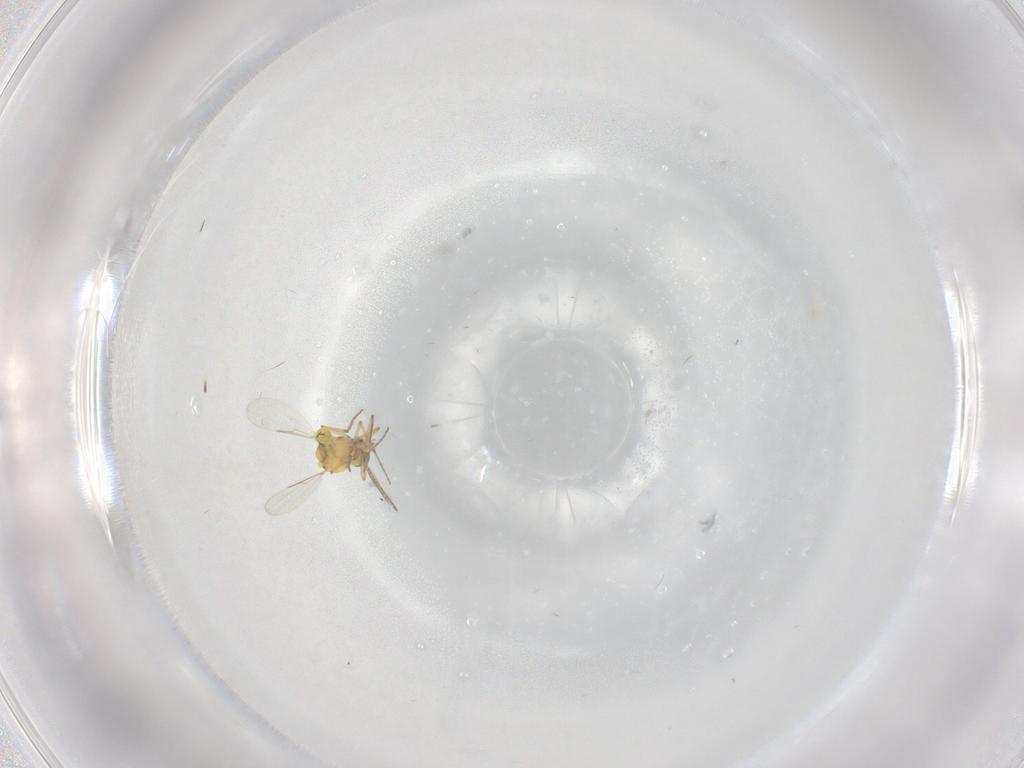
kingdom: Animalia
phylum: Arthropoda
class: Insecta
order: Diptera
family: Ceratopogonidae
